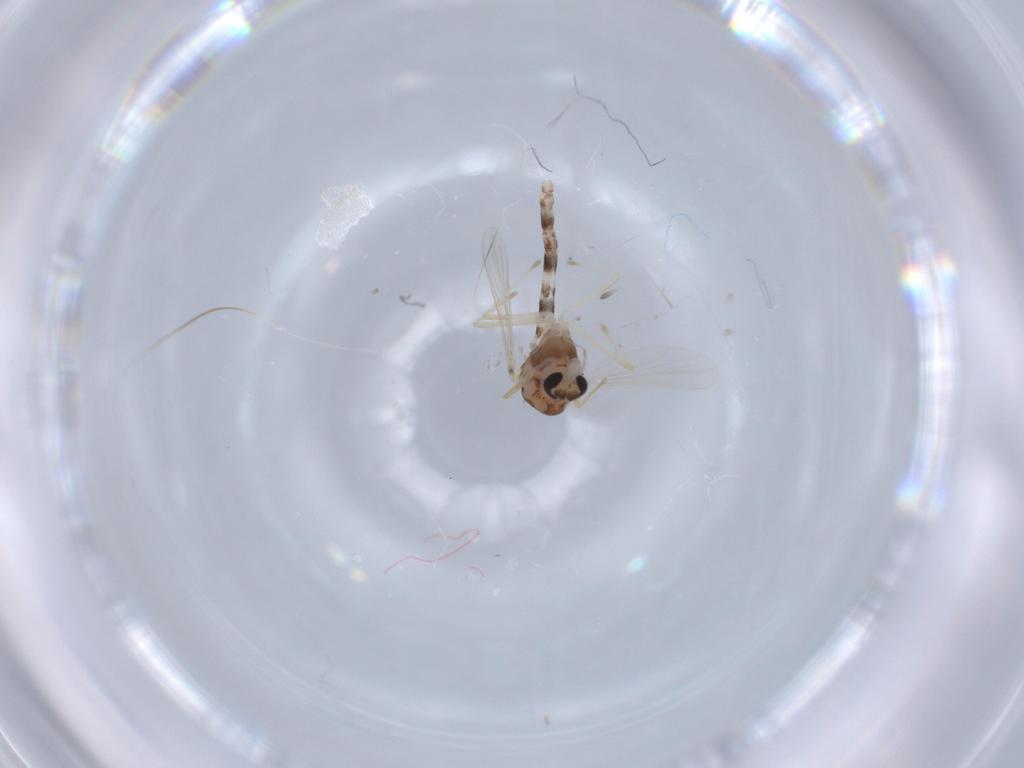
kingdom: Animalia
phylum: Arthropoda
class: Insecta
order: Diptera
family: Chironomidae
